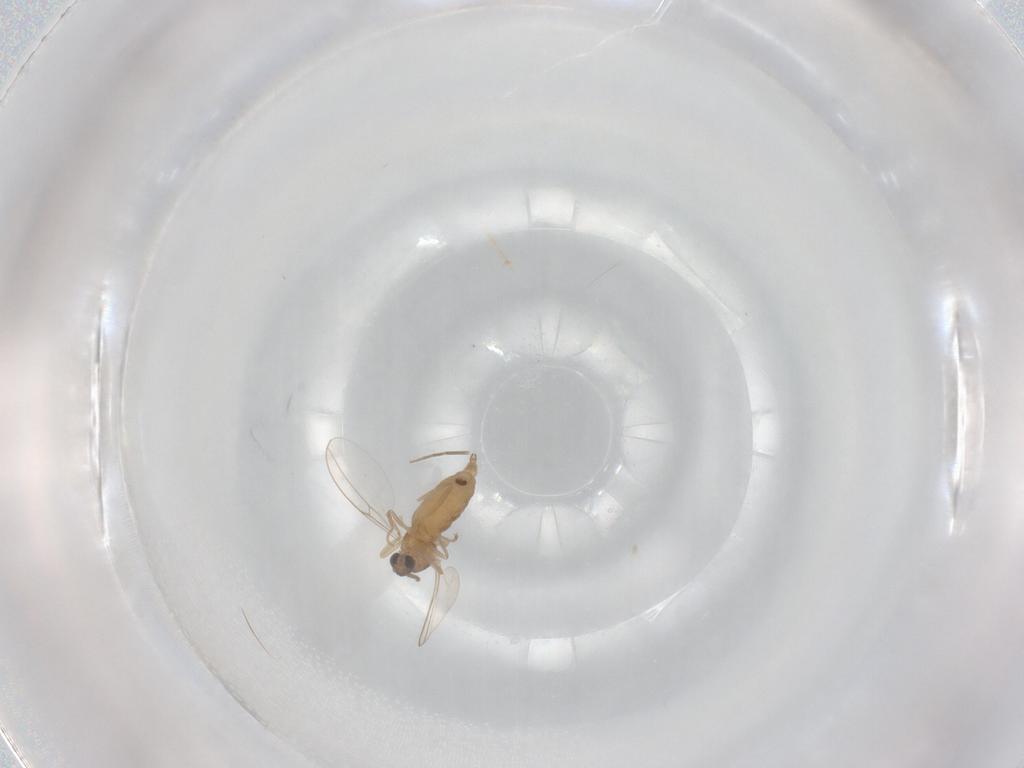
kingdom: Animalia
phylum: Arthropoda
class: Insecta
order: Diptera
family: Cecidomyiidae
